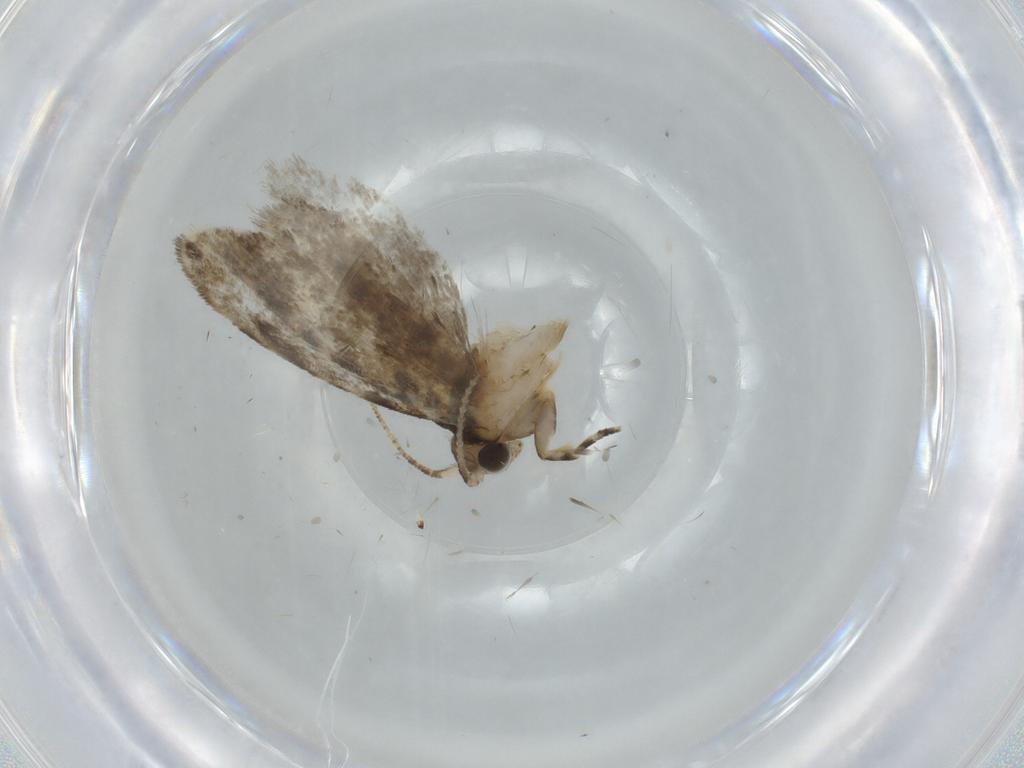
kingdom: Animalia
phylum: Arthropoda
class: Insecta
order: Lepidoptera
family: Tineidae
